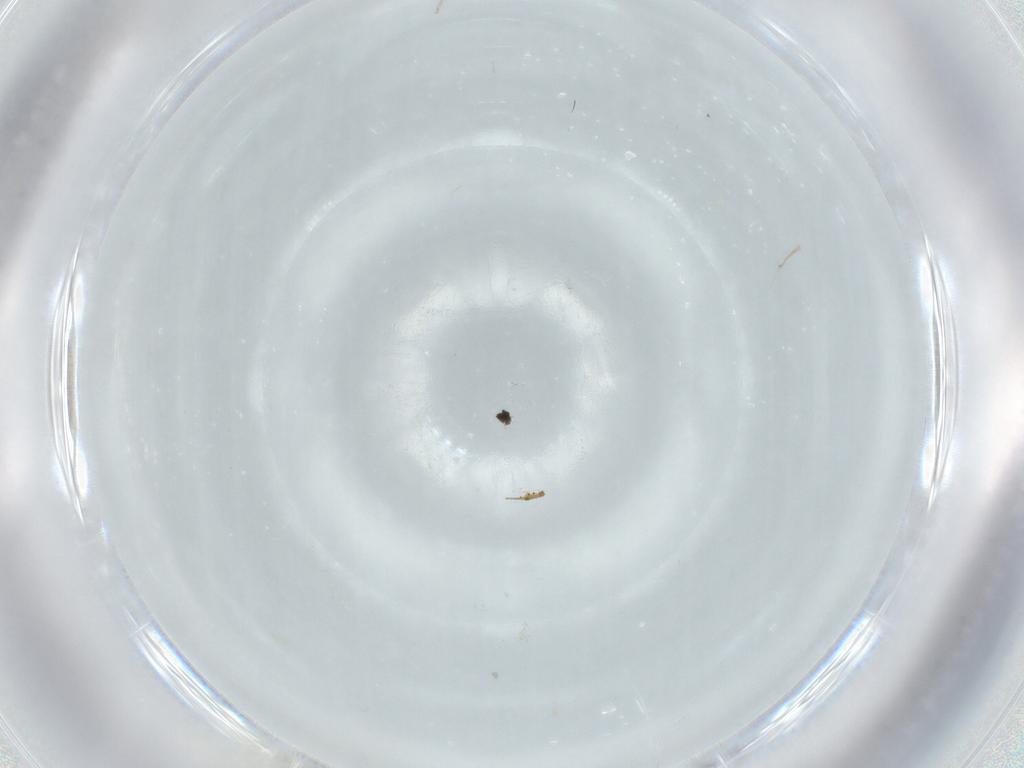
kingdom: Animalia
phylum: Arthropoda
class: Insecta
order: Diptera
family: Cecidomyiidae
